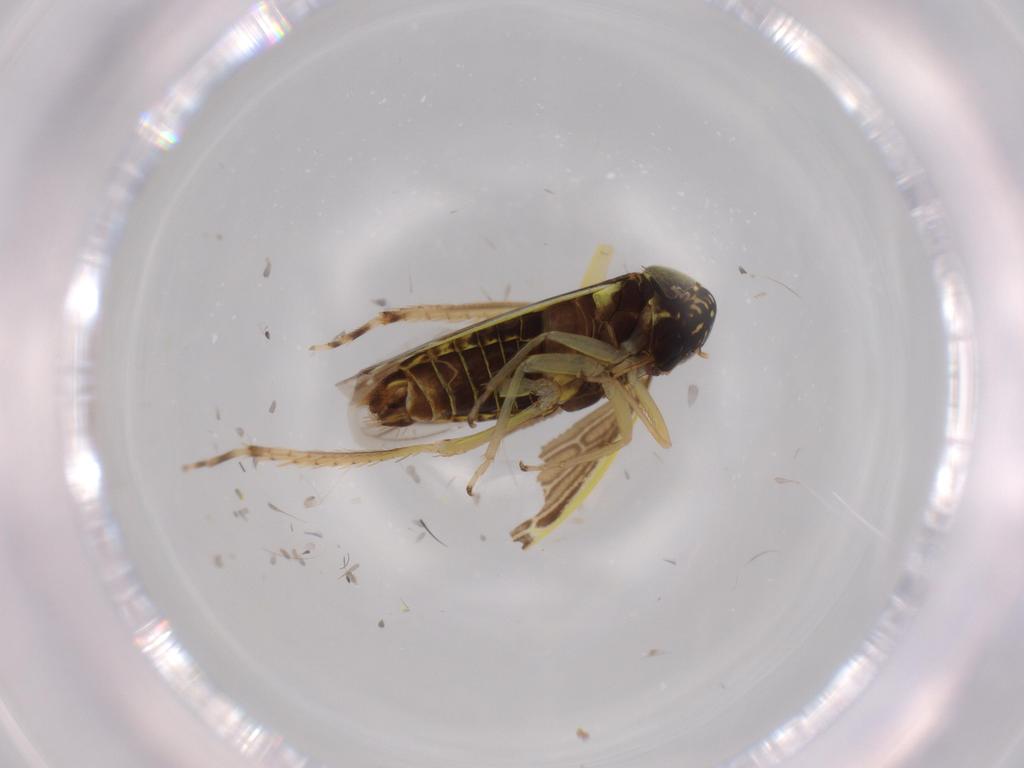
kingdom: Animalia
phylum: Arthropoda
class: Insecta
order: Hemiptera
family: Cicadellidae
